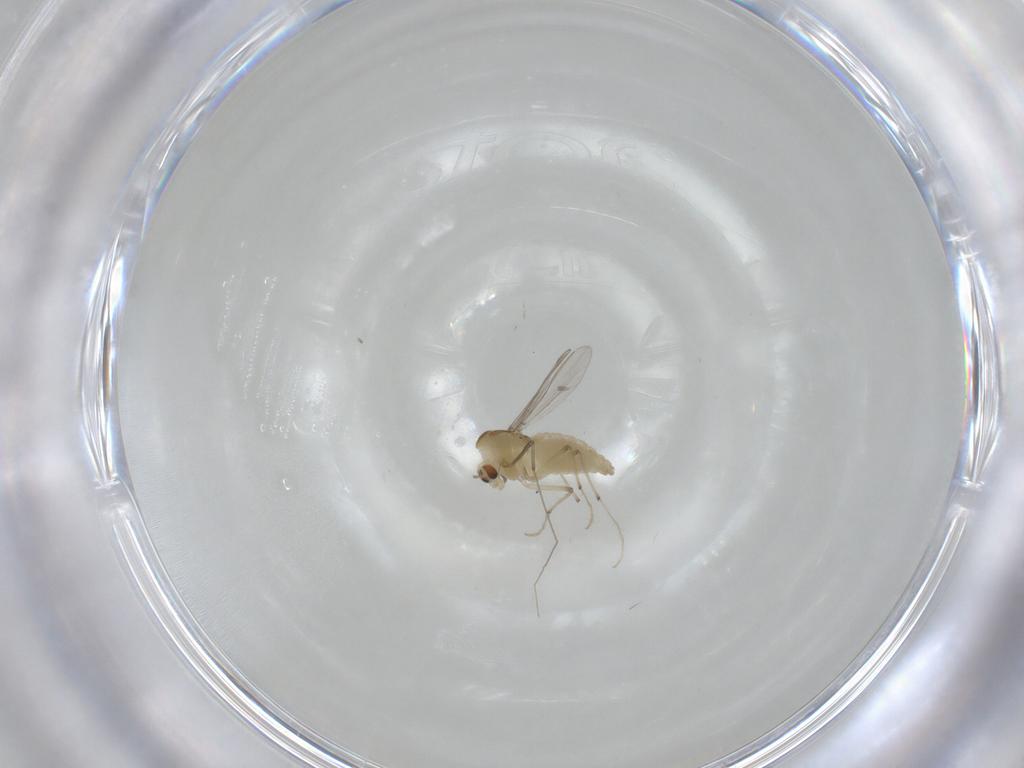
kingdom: Animalia
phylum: Arthropoda
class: Insecta
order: Diptera
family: Chironomidae
